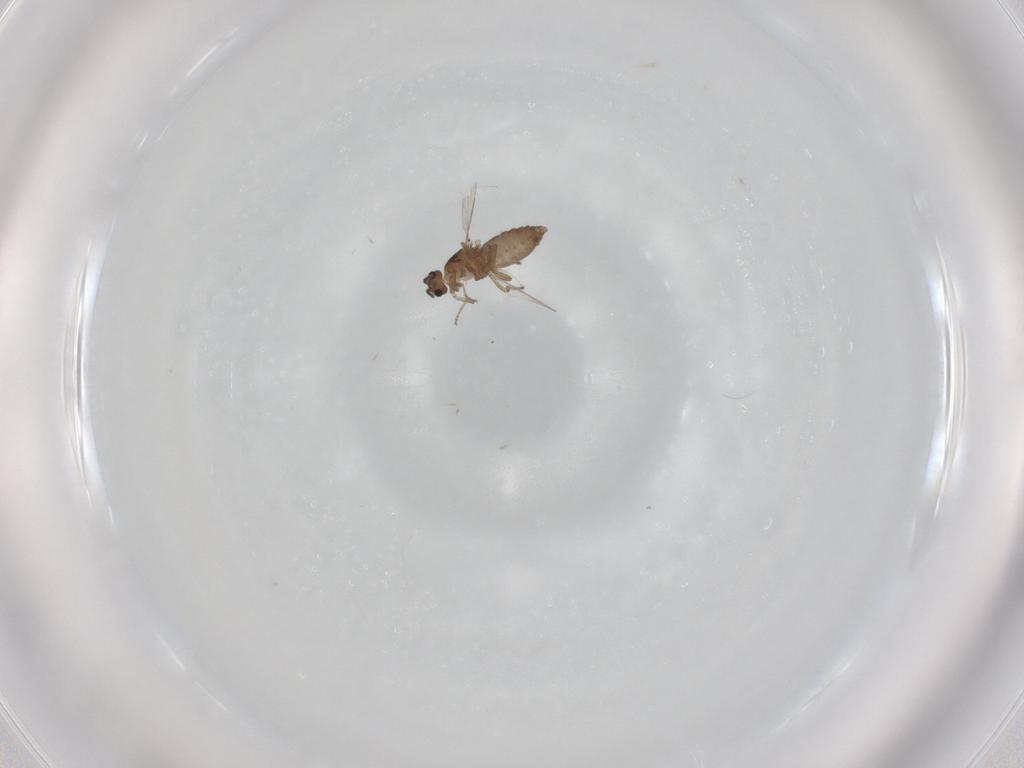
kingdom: Animalia
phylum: Arthropoda
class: Insecta
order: Diptera
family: Ceratopogonidae
